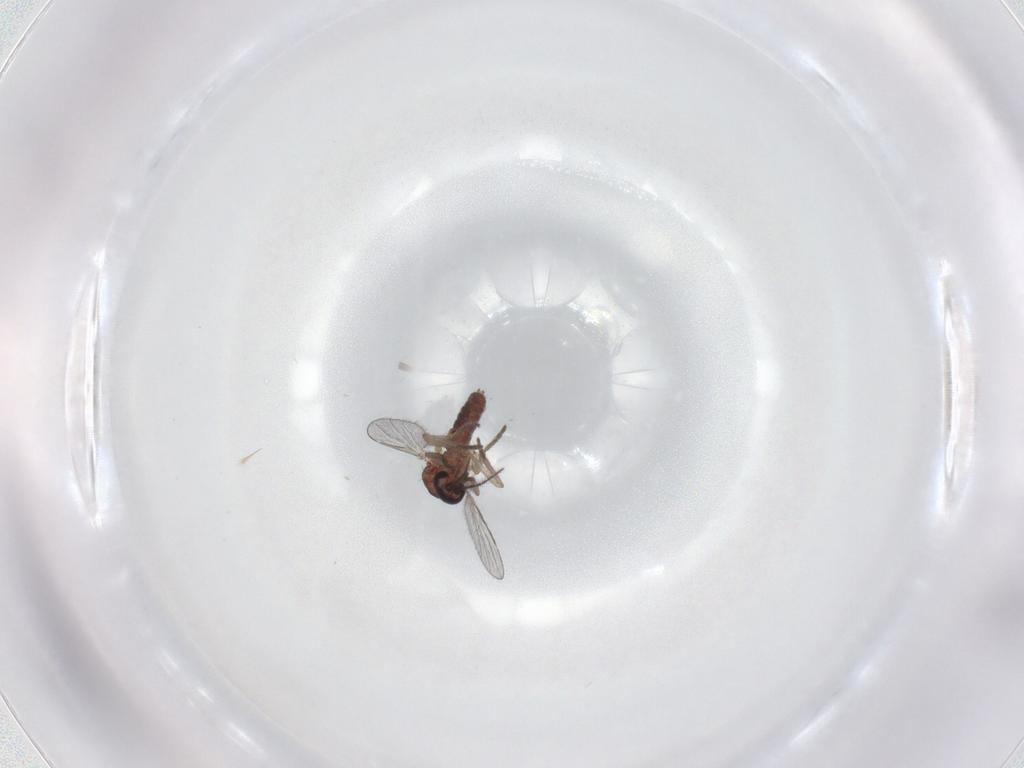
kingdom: Animalia
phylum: Arthropoda
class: Insecta
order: Diptera
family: Ceratopogonidae
